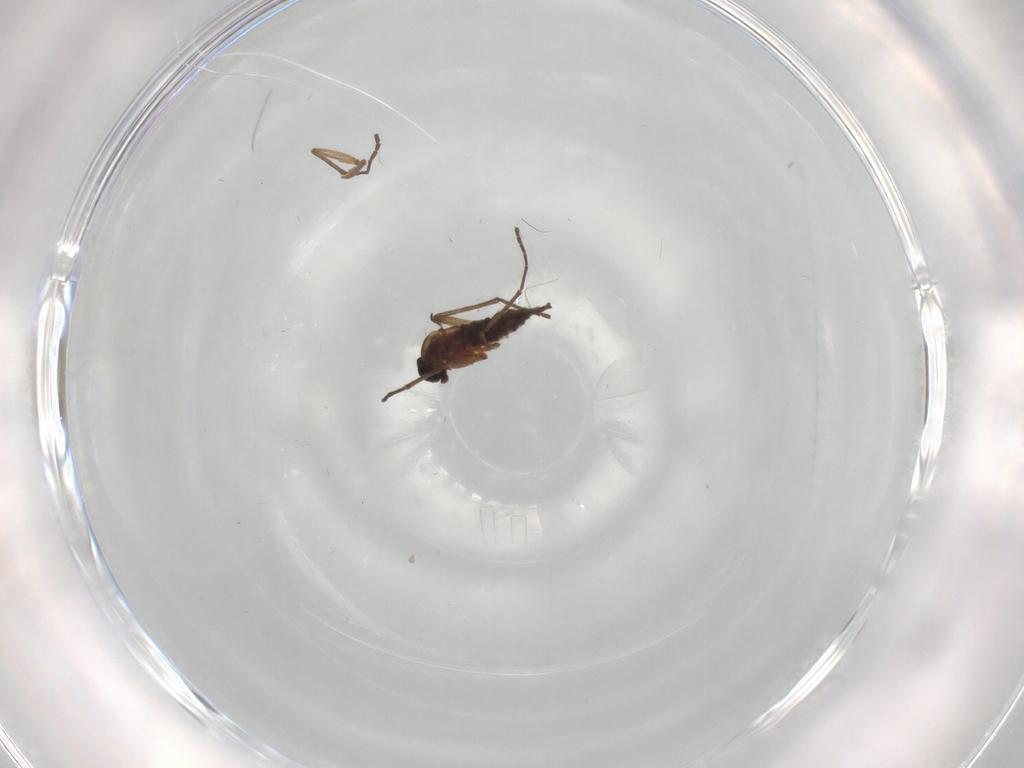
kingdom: Animalia
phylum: Arthropoda
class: Insecta
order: Diptera
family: Sciaridae
